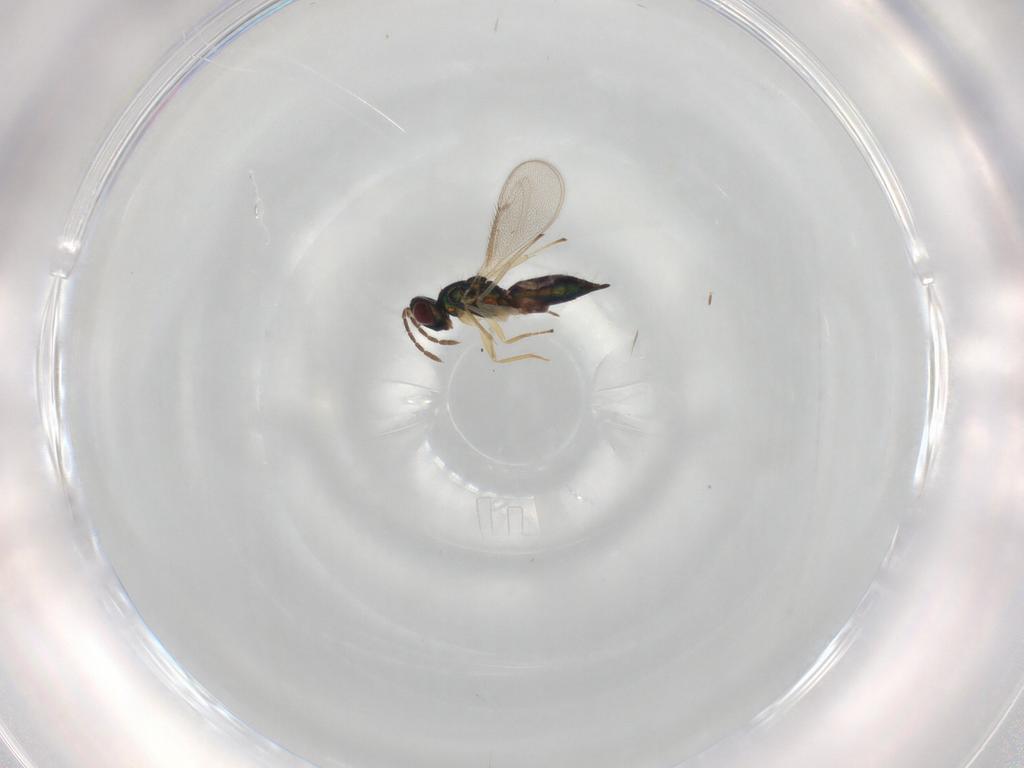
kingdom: Animalia
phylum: Arthropoda
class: Insecta
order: Hymenoptera
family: Eulophidae
